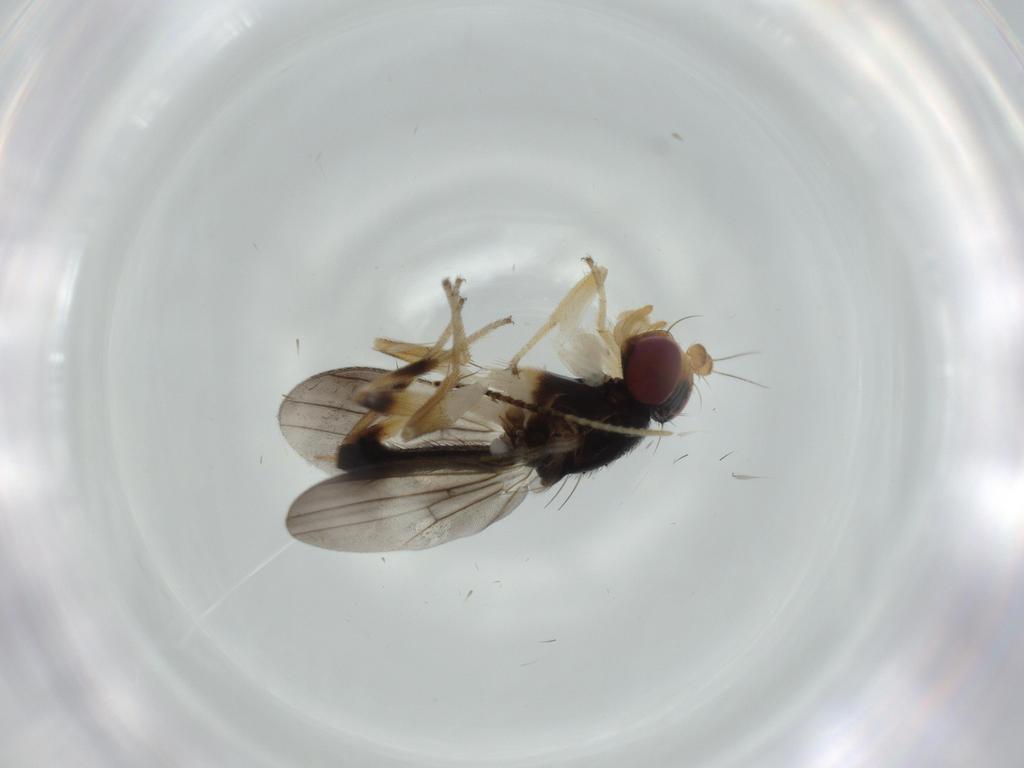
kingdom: Animalia
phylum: Arthropoda
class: Insecta
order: Diptera
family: Clusiidae
